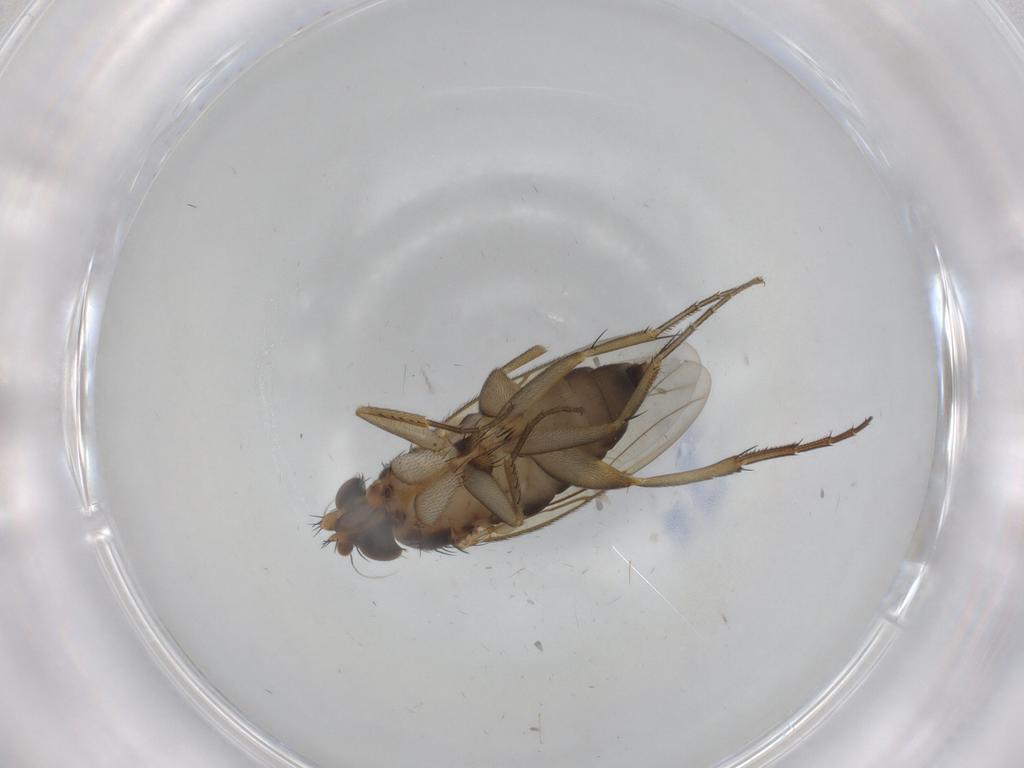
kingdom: Animalia
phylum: Arthropoda
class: Insecta
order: Diptera
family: Phoridae
